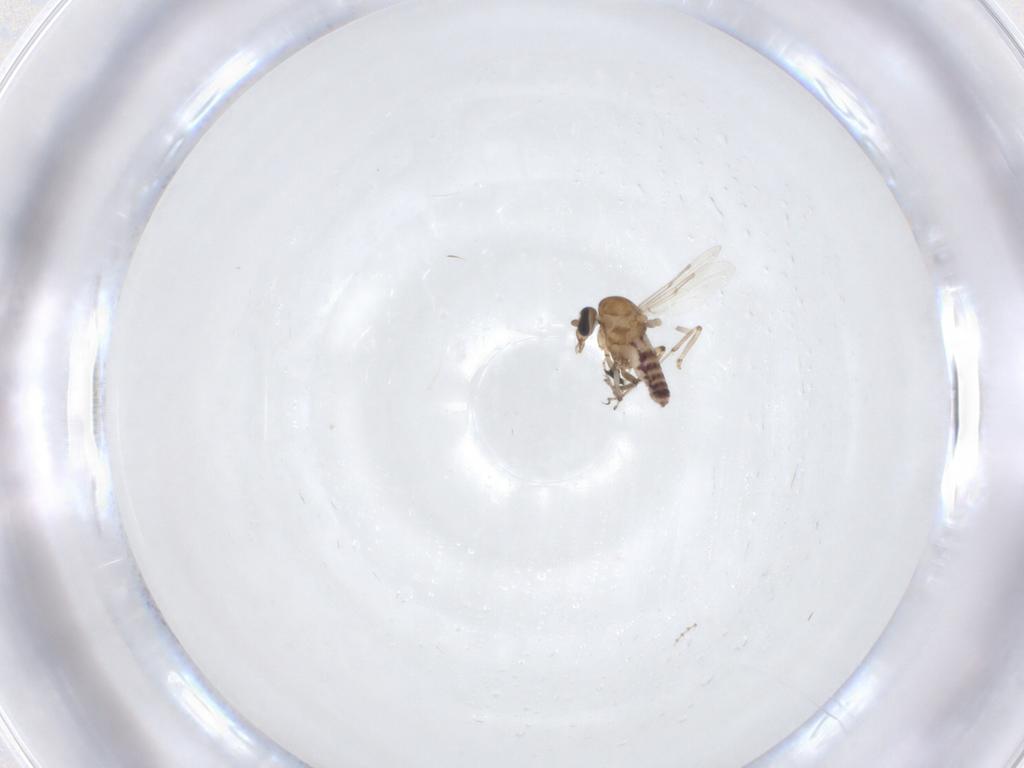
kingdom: Animalia
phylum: Arthropoda
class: Insecta
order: Diptera
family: Ceratopogonidae
